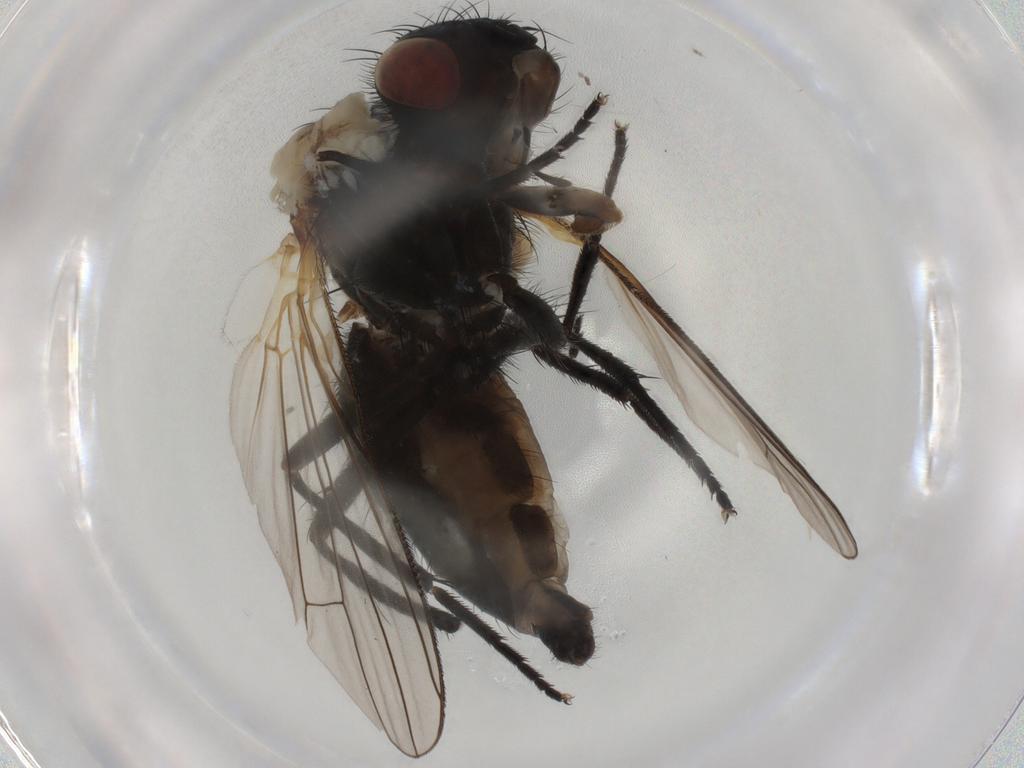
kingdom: Animalia
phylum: Arthropoda
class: Insecta
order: Diptera
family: Anthomyiidae
